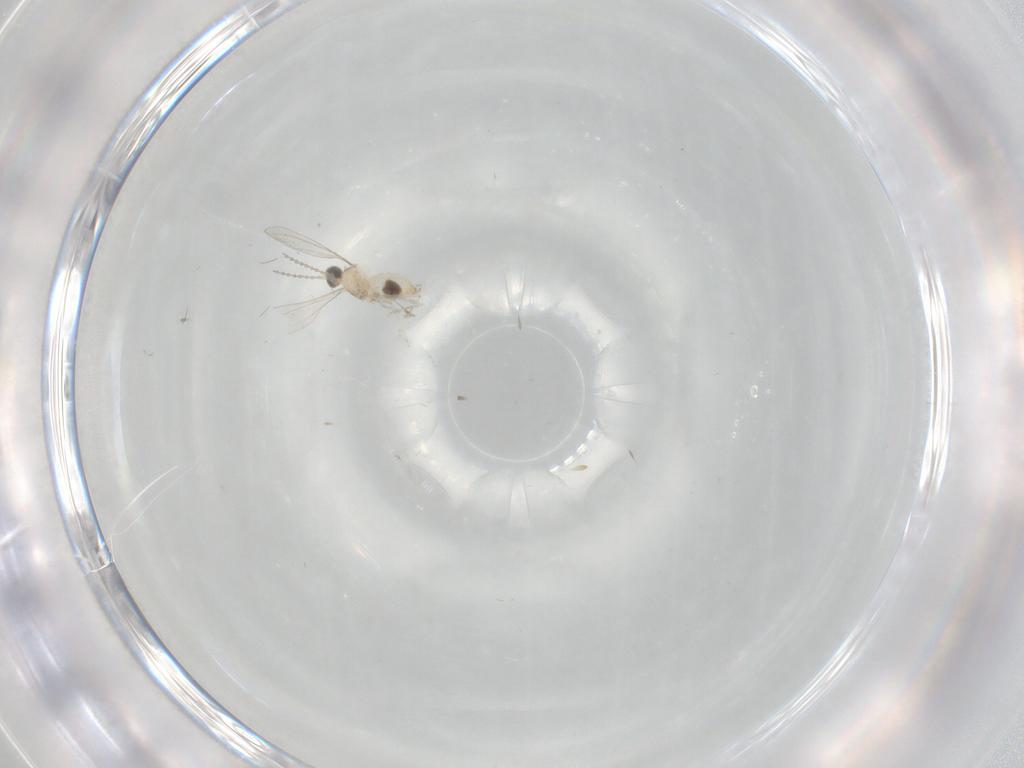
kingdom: Animalia
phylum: Arthropoda
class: Insecta
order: Diptera
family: Cecidomyiidae
